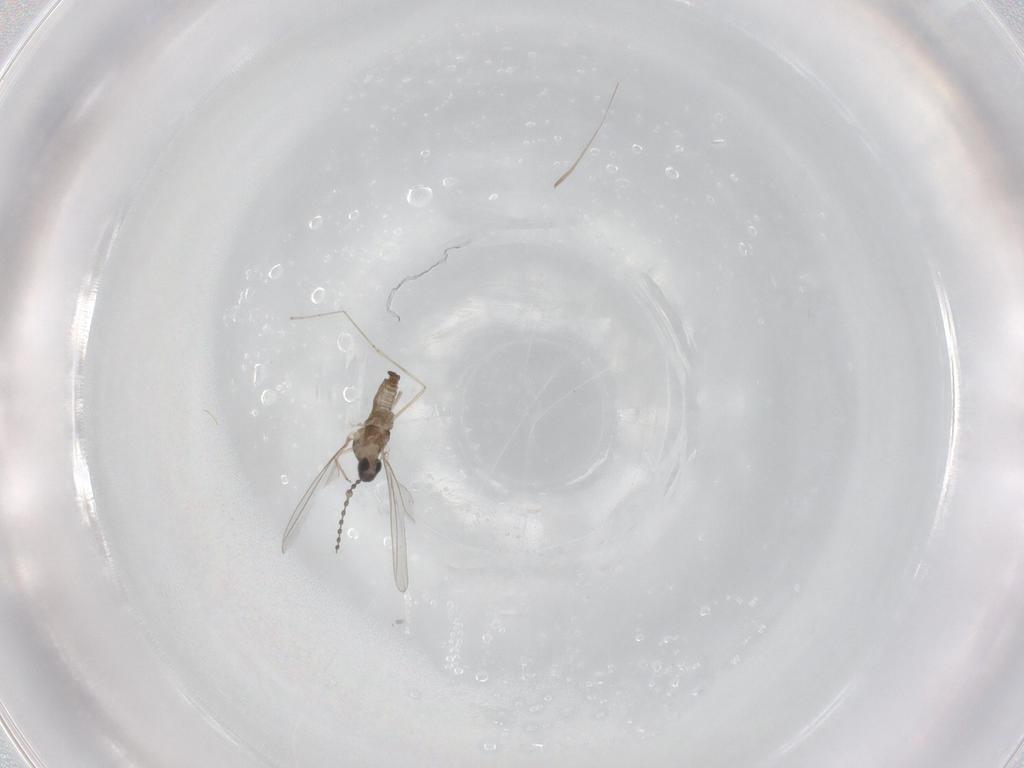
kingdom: Animalia
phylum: Arthropoda
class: Insecta
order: Diptera
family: Cecidomyiidae
